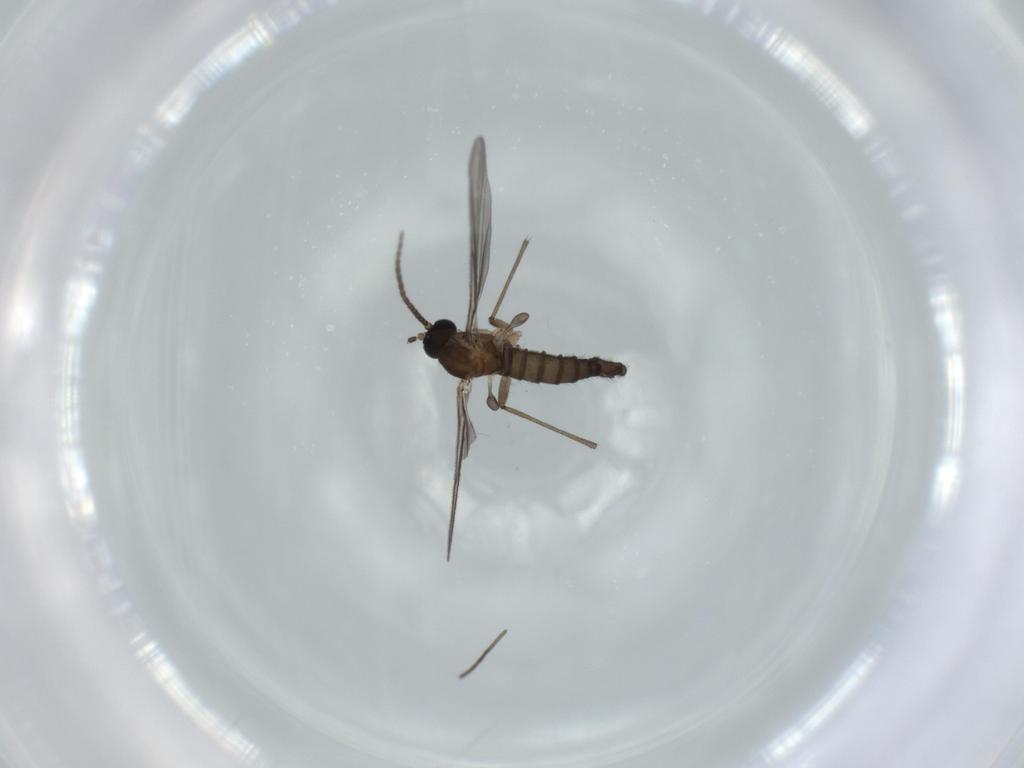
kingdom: Animalia
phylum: Arthropoda
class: Insecta
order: Diptera
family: Sciaridae
